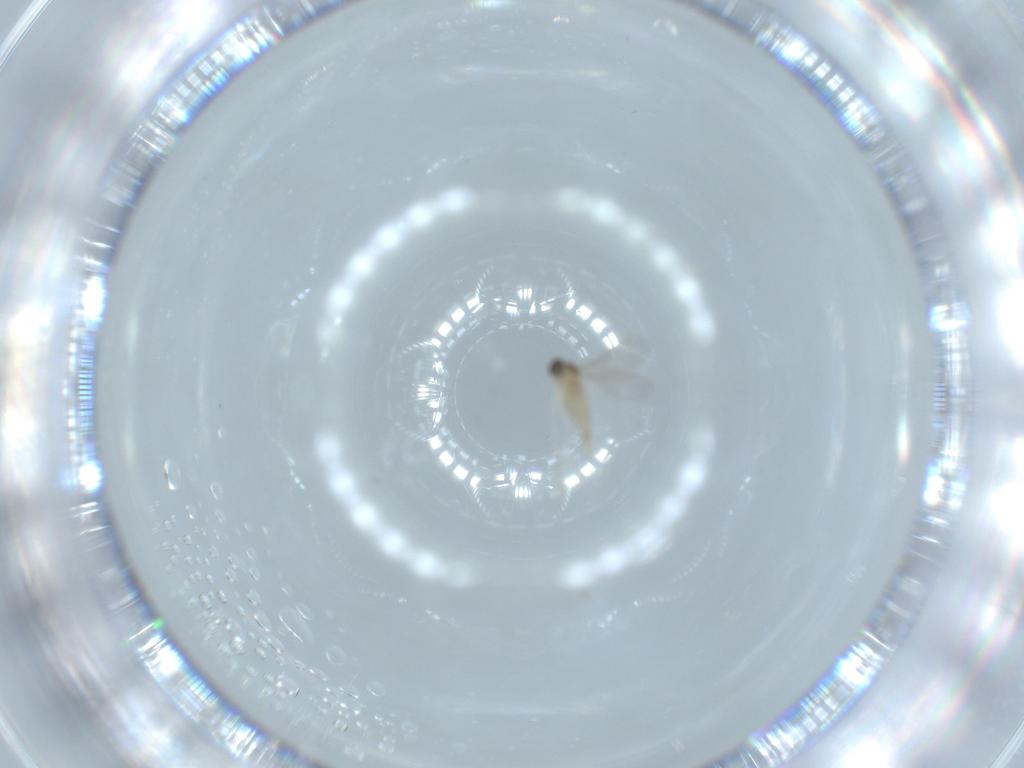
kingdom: Animalia
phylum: Arthropoda
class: Insecta
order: Diptera
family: Ceratopogonidae
